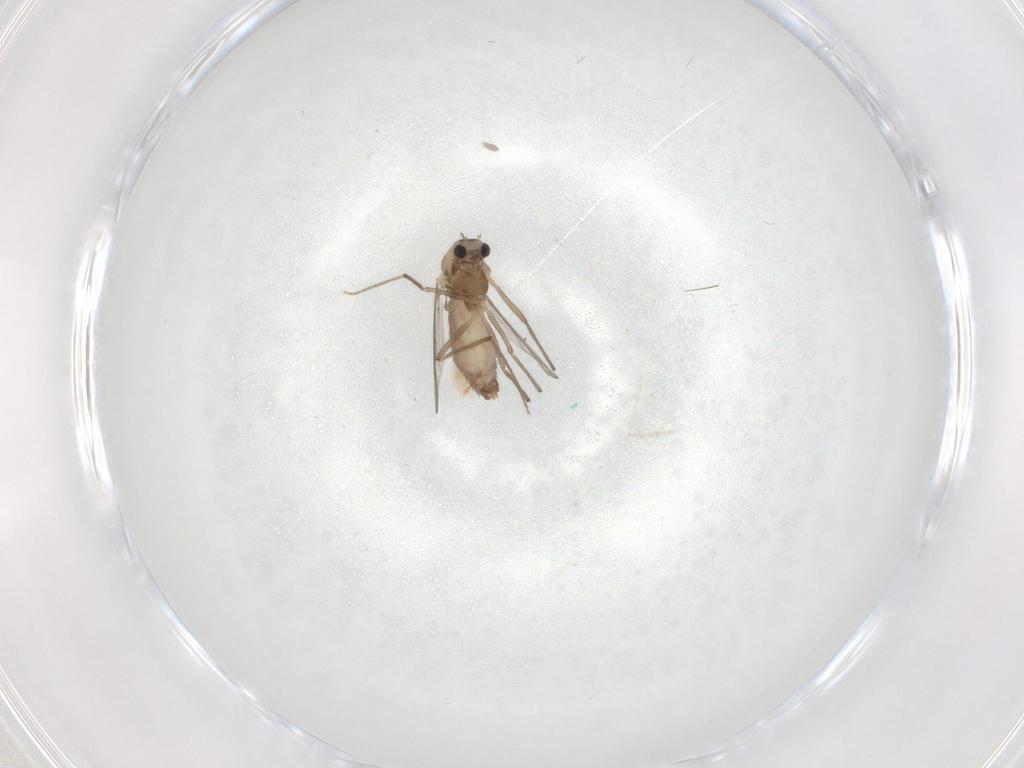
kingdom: Animalia
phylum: Arthropoda
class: Insecta
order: Diptera
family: Chironomidae
